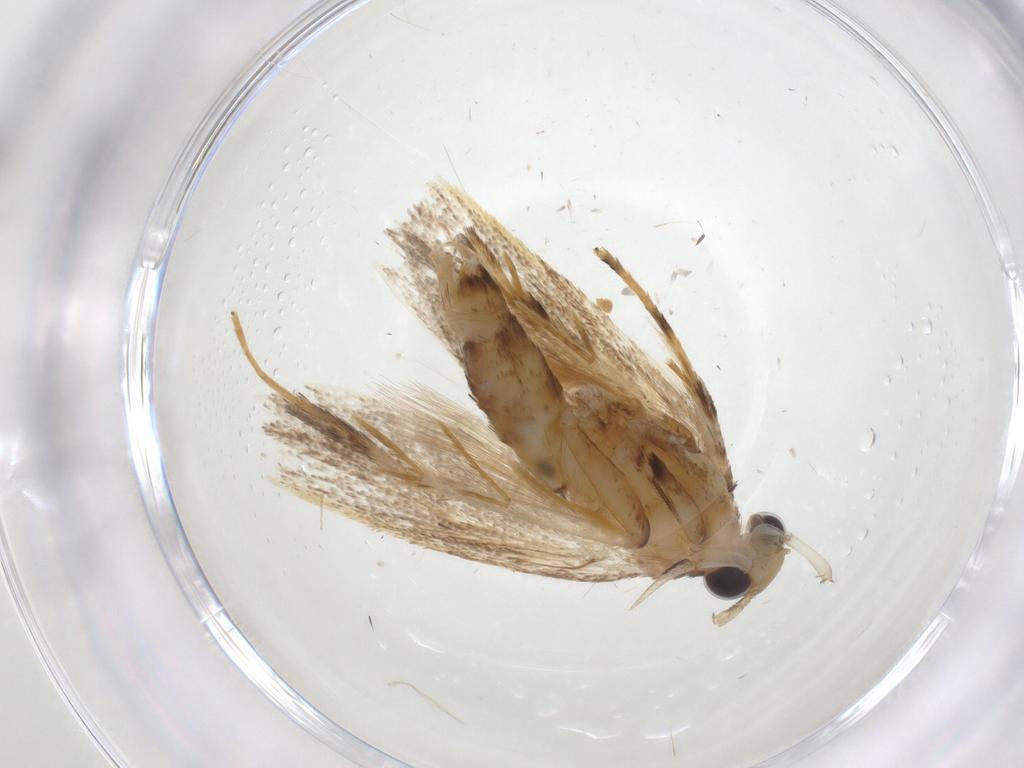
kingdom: Animalia
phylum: Arthropoda
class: Insecta
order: Lepidoptera
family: Lecithoceridae
